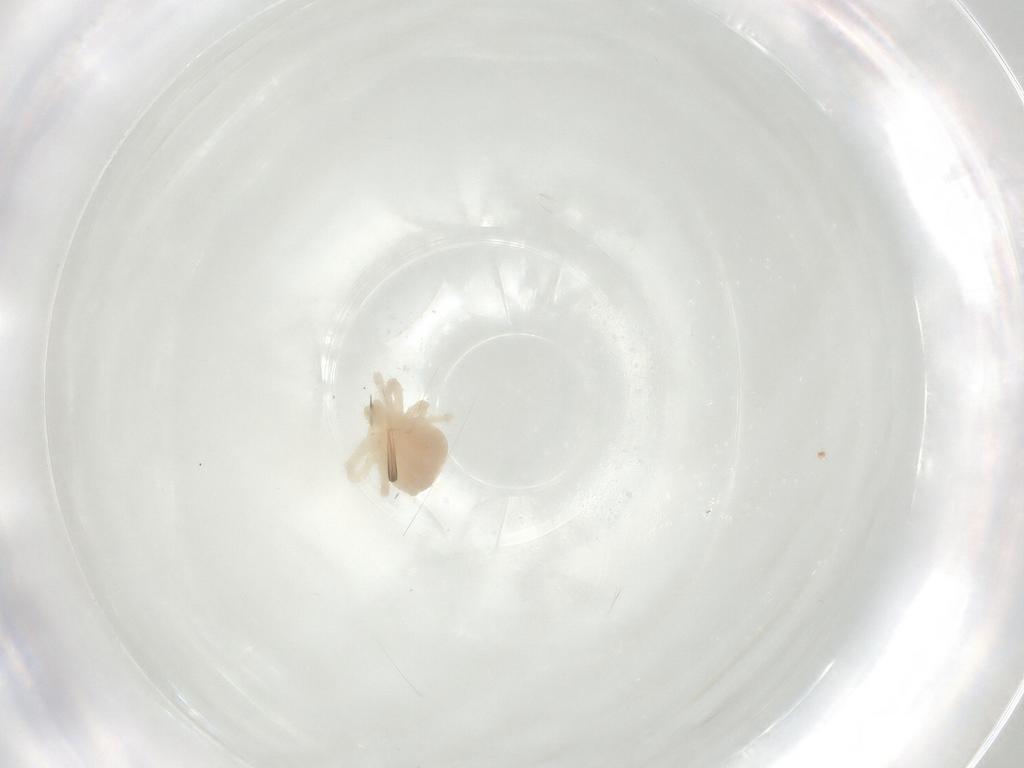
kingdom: Animalia
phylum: Arthropoda
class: Arachnida
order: Trombidiformes
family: Anystidae
